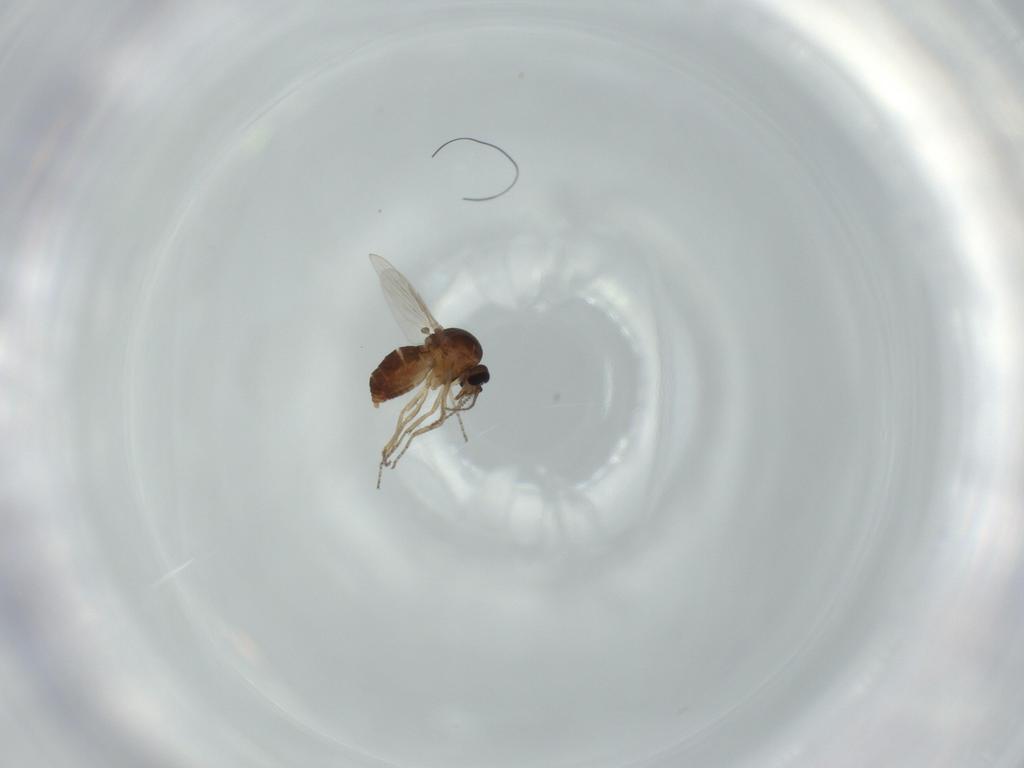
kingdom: Animalia
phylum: Arthropoda
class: Insecta
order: Diptera
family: Ceratopogonidae
